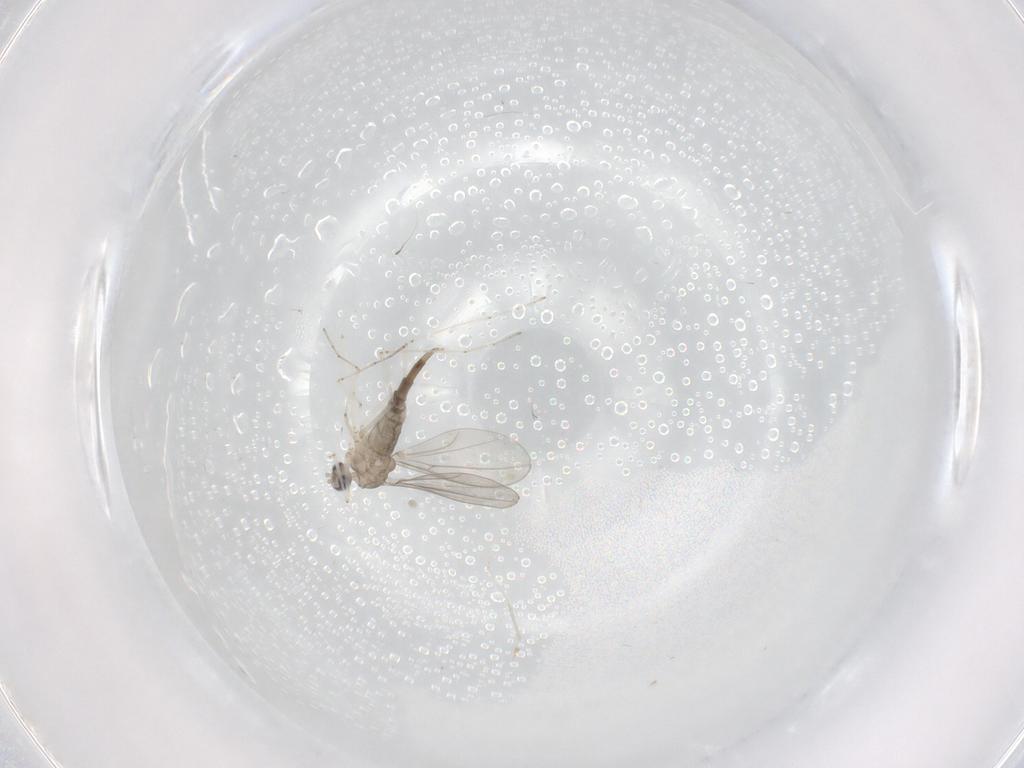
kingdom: Animalia
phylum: Arthropoda
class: Insecta
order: Diptera
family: Cecidomyiidae
